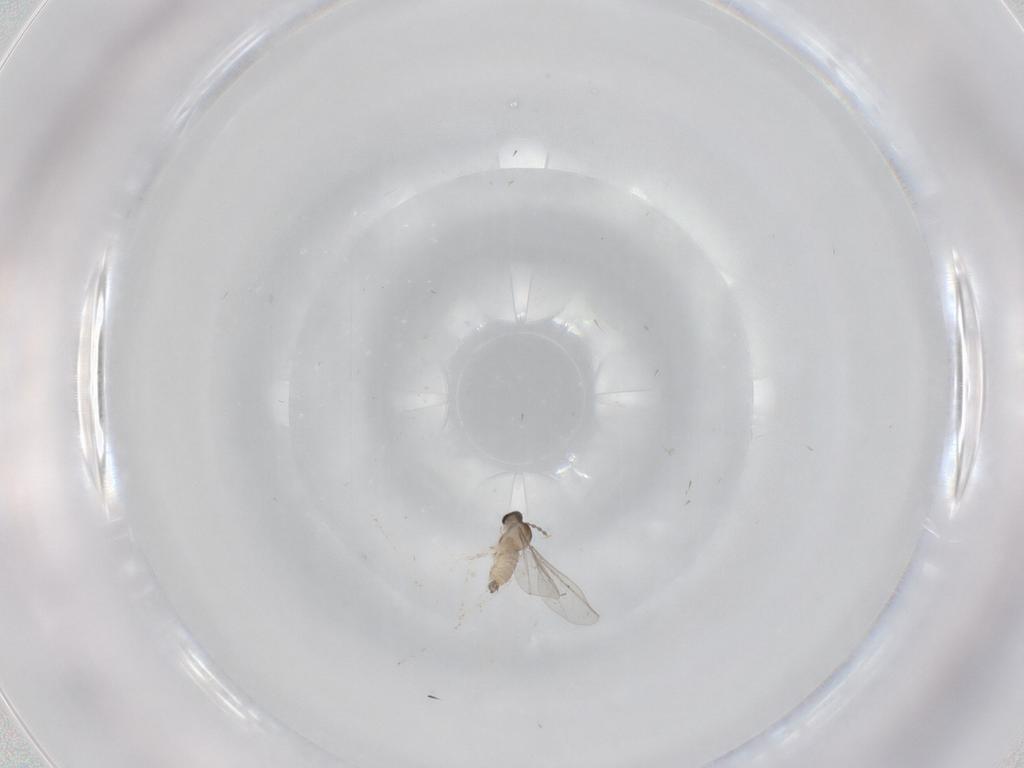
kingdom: Animalia
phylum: Arthropoda
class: Insecta
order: Diptera
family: Cecidomyiidae
